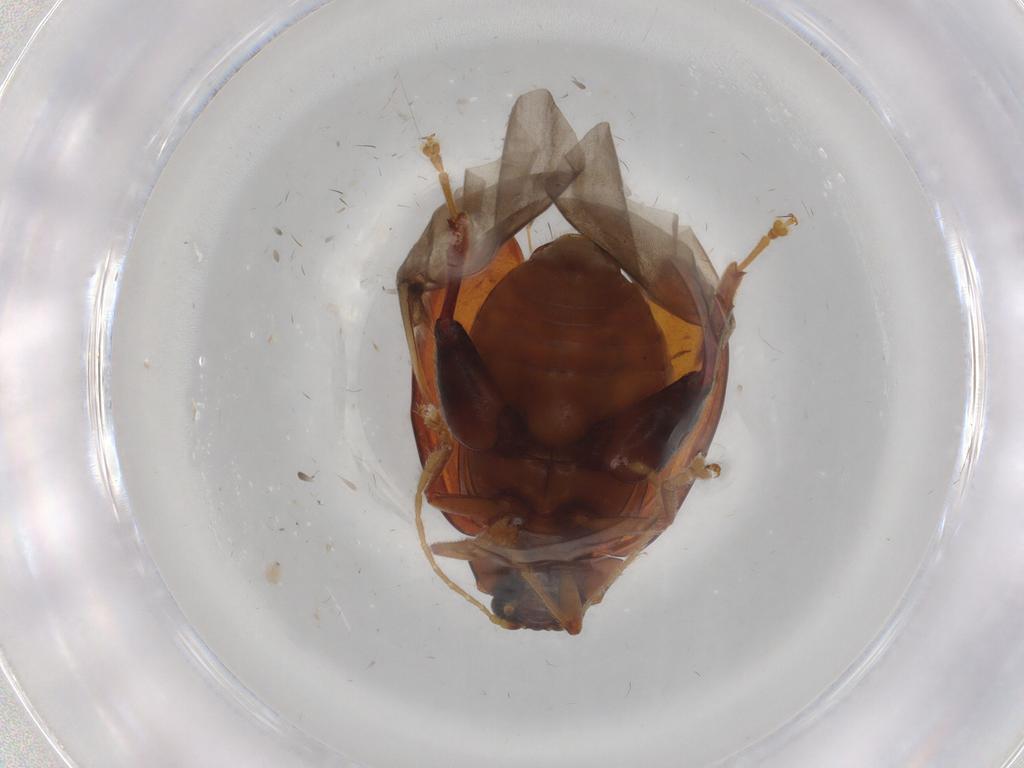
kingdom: Animalia
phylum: Arthropoda
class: Insecta
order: Coleoptera
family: Chrysomelidae
